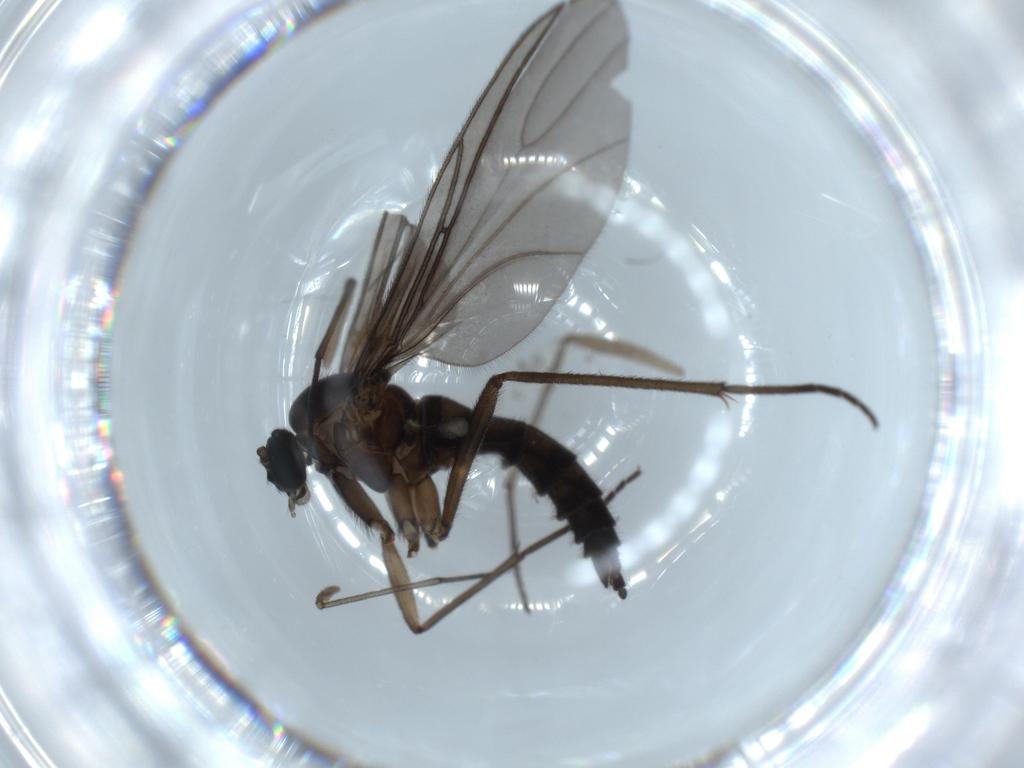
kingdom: Animalia
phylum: Arthropoda
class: Insecta
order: Diptera
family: Sciaridae
